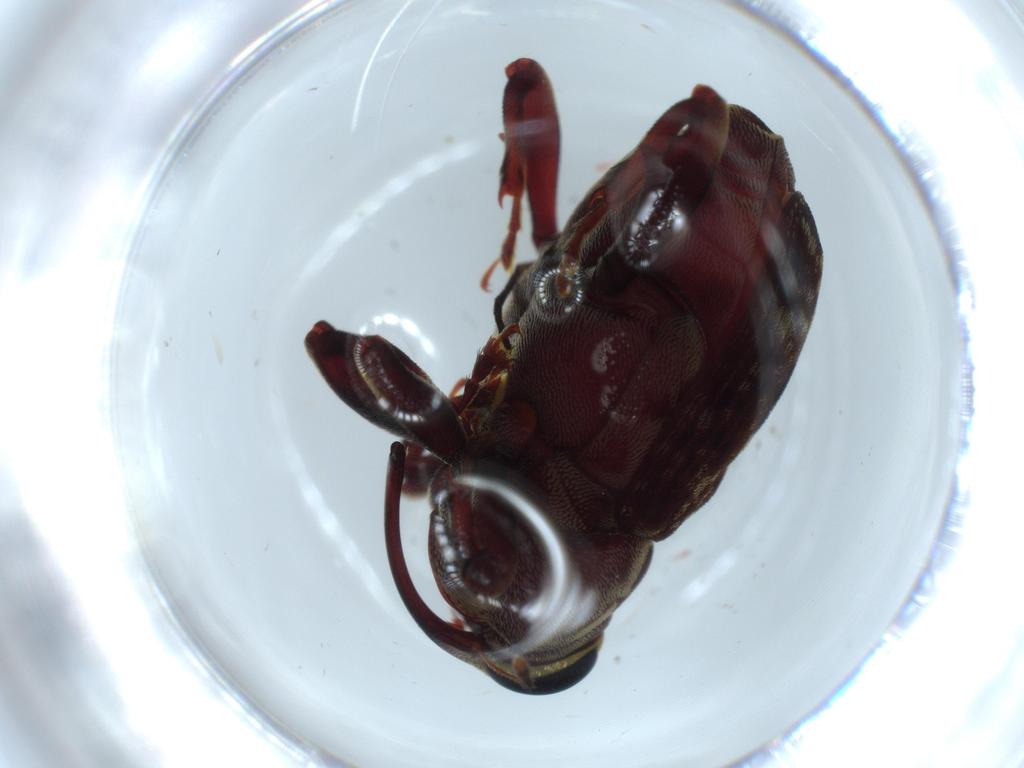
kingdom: Animalia
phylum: Arthropoda
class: Insecta
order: Coleoptera
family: Curculionidae
